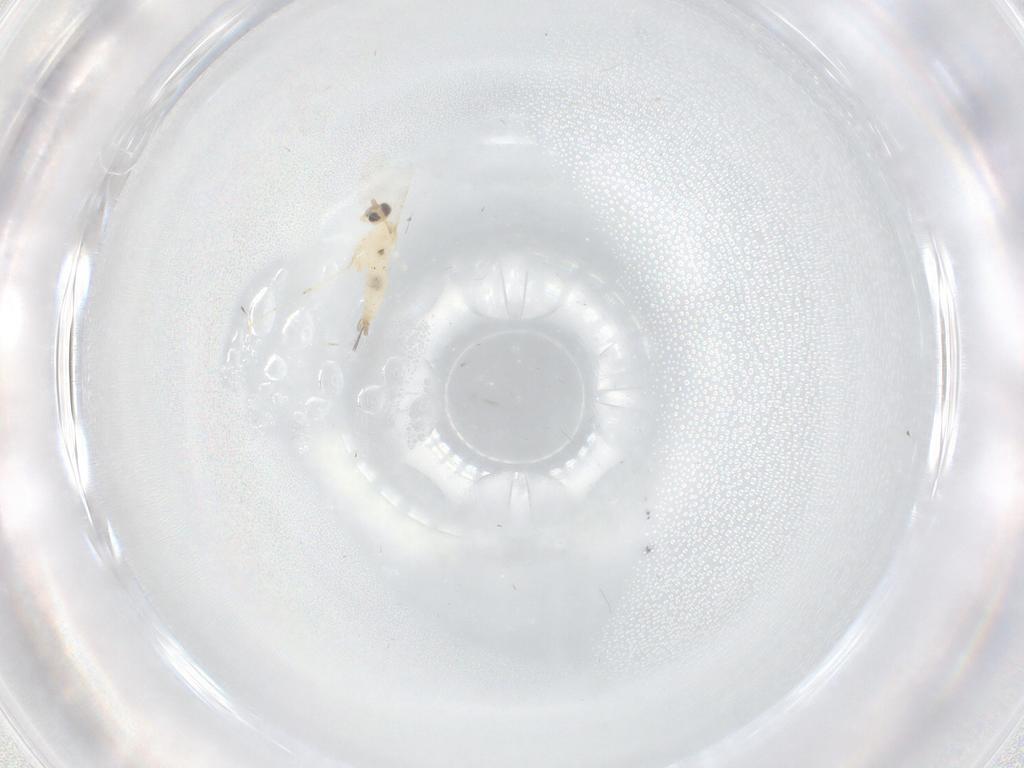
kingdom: Animalia
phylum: Arthropoda
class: Insecta
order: Diptera
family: Cecidomyiidae
